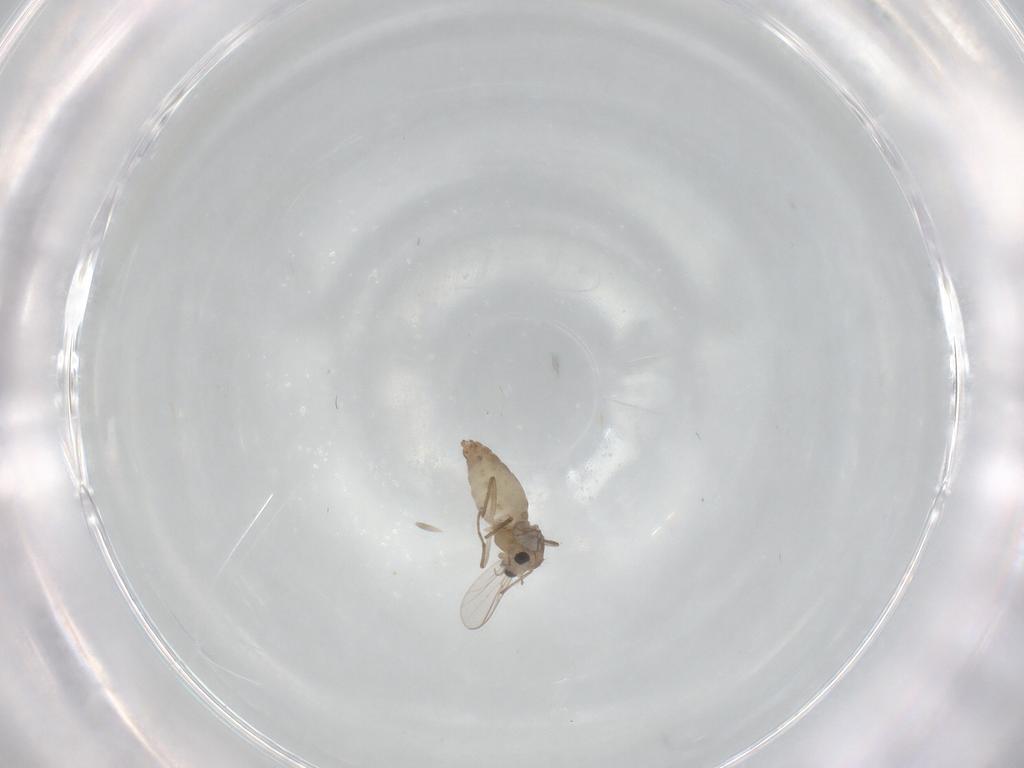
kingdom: Animalia
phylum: Arthropoda
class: Insecta
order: Diptera
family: Chironomidae
